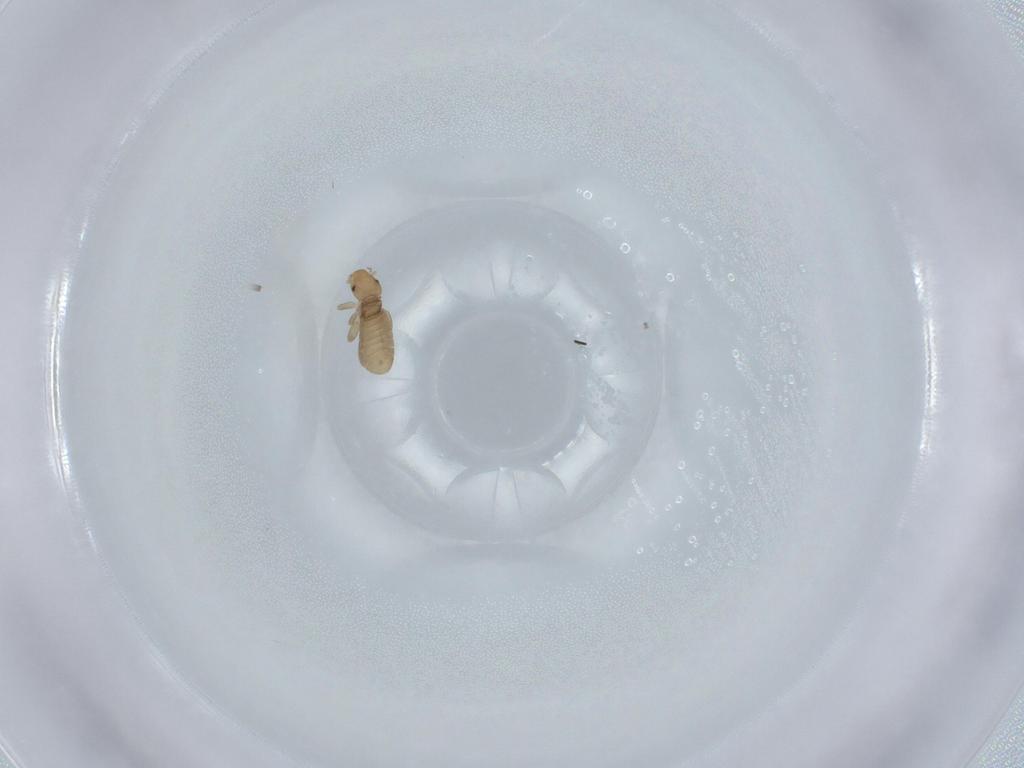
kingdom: Animalia
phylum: Arthropoda
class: Insecta
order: Psocodea
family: Liposcelididae
